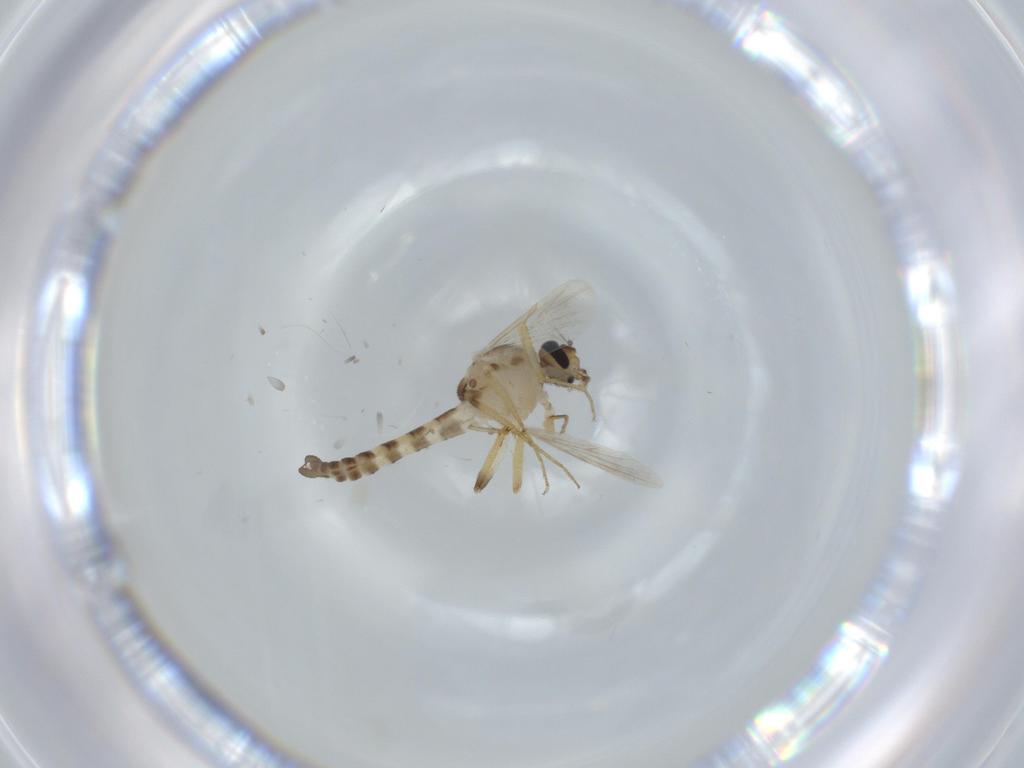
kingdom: Animalia
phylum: Arthropoda
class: Insecta
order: Diptera
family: Ceratopogonidae
